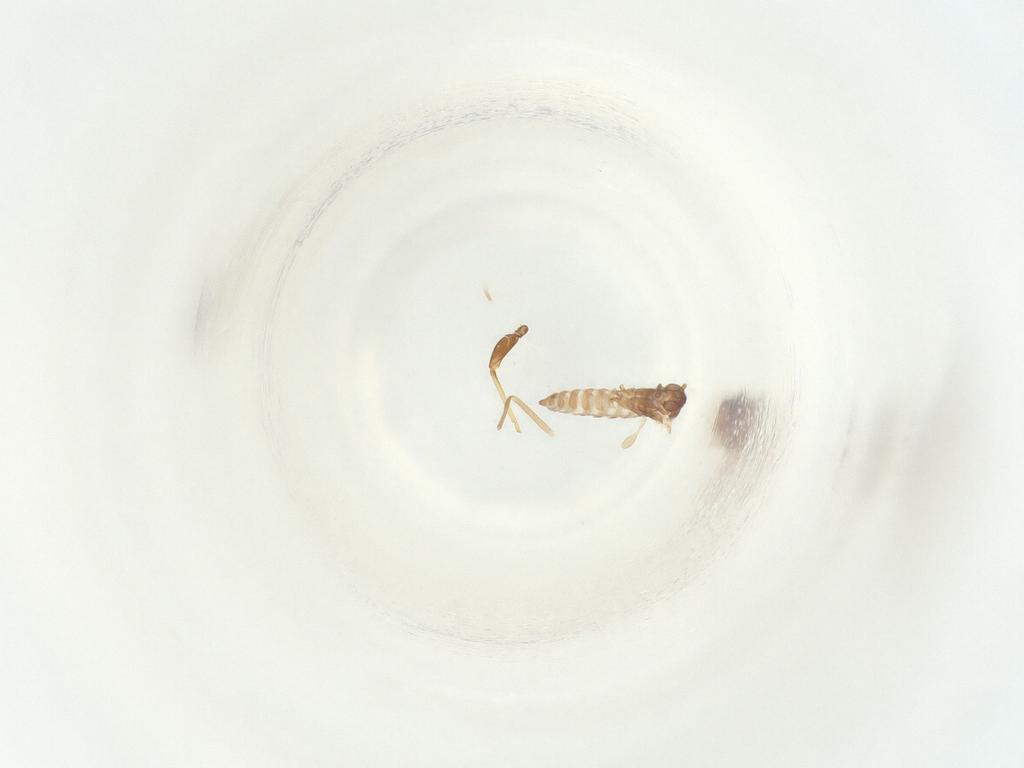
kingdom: Animalia
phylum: Arthropoda
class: Insecta
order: Diptera
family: Sciaridae
